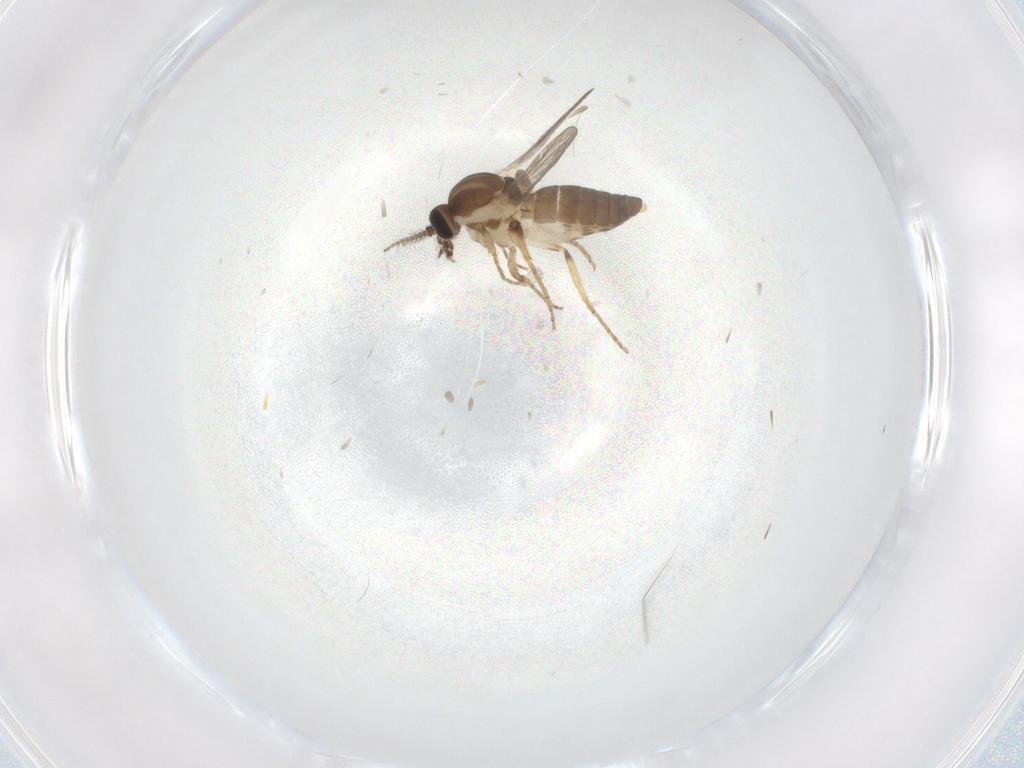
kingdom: Animalia
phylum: Arthropoda
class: Insecta
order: Diptera
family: Ceratopogonidae
